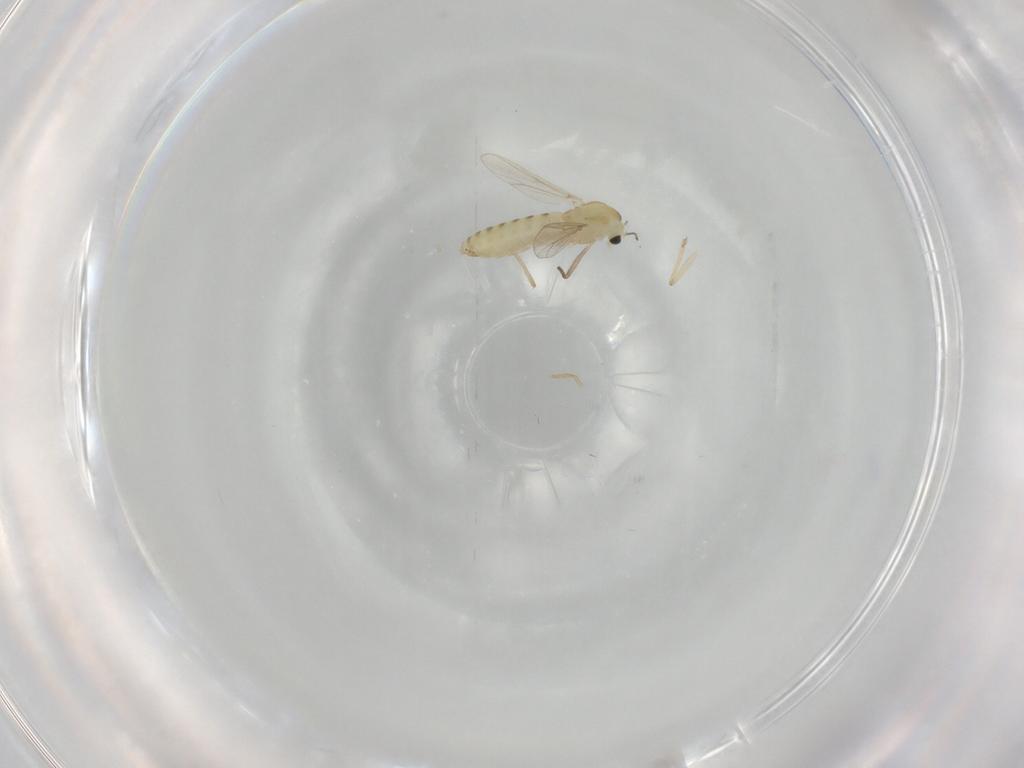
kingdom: Animalia
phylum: Arthropoda
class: Insecta
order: Diptera
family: Chironomidae
